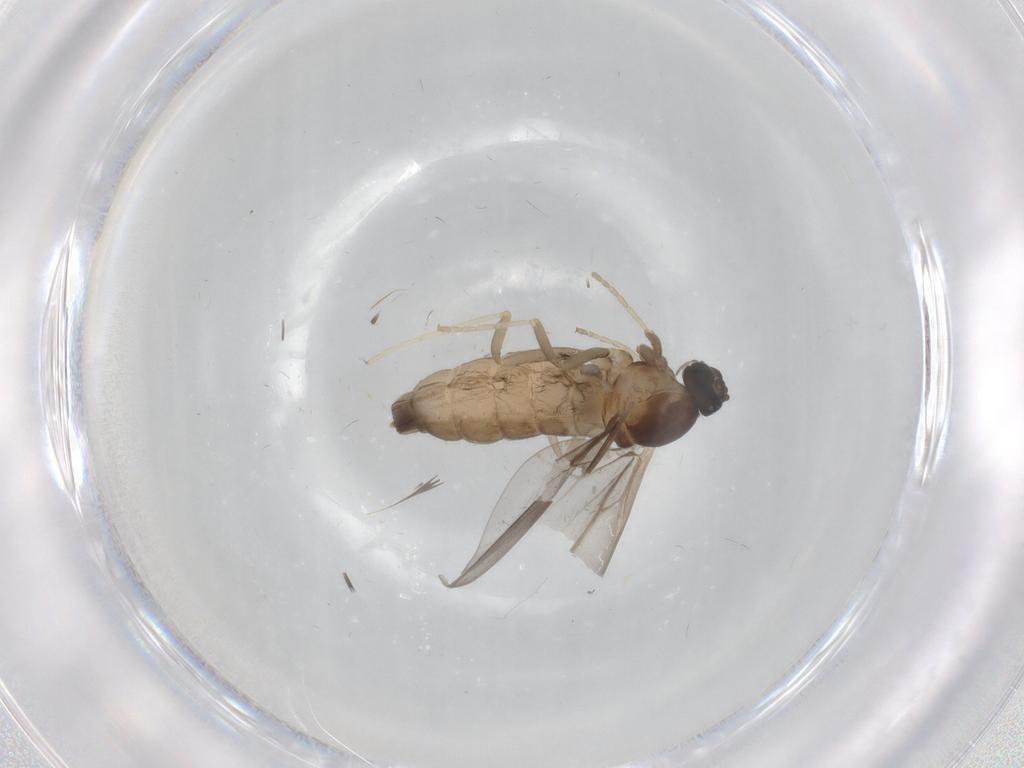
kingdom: Animalia
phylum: Arthropoda
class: Insecta
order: Diptera
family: Cecidomyiidae
